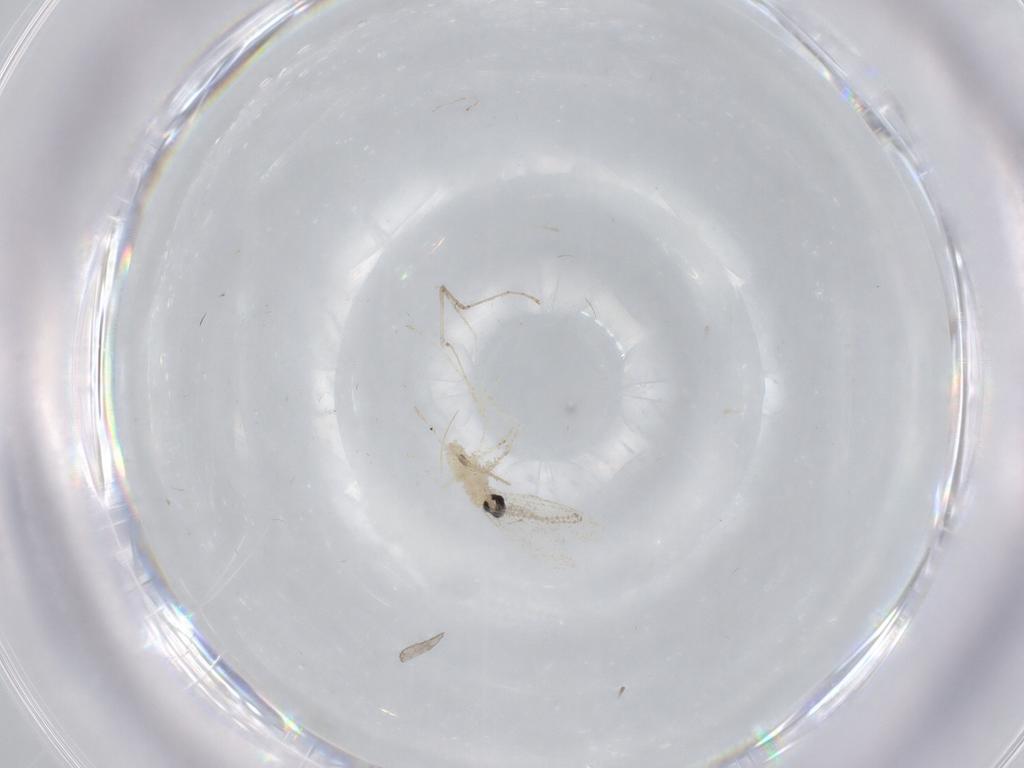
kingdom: Animalia
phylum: Arthropoda
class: Insecta
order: Diptera
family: Cecidomyiidae
